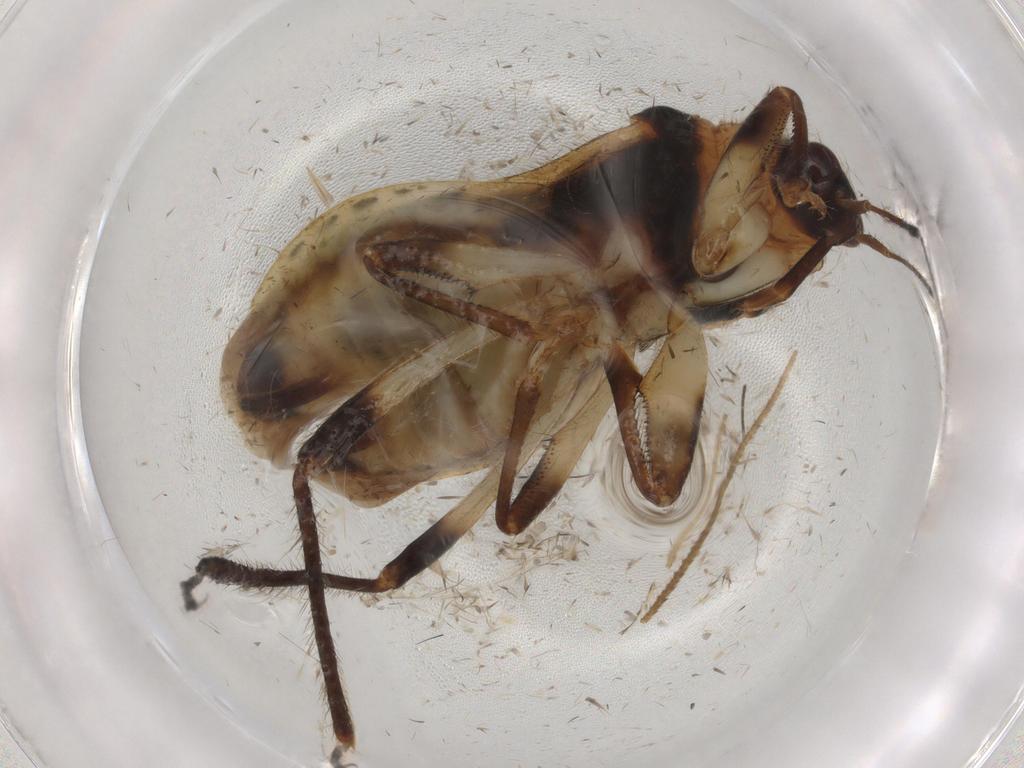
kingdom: Animalia
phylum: Arthropoda
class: Insecta
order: Hemiptera
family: Nabidae
